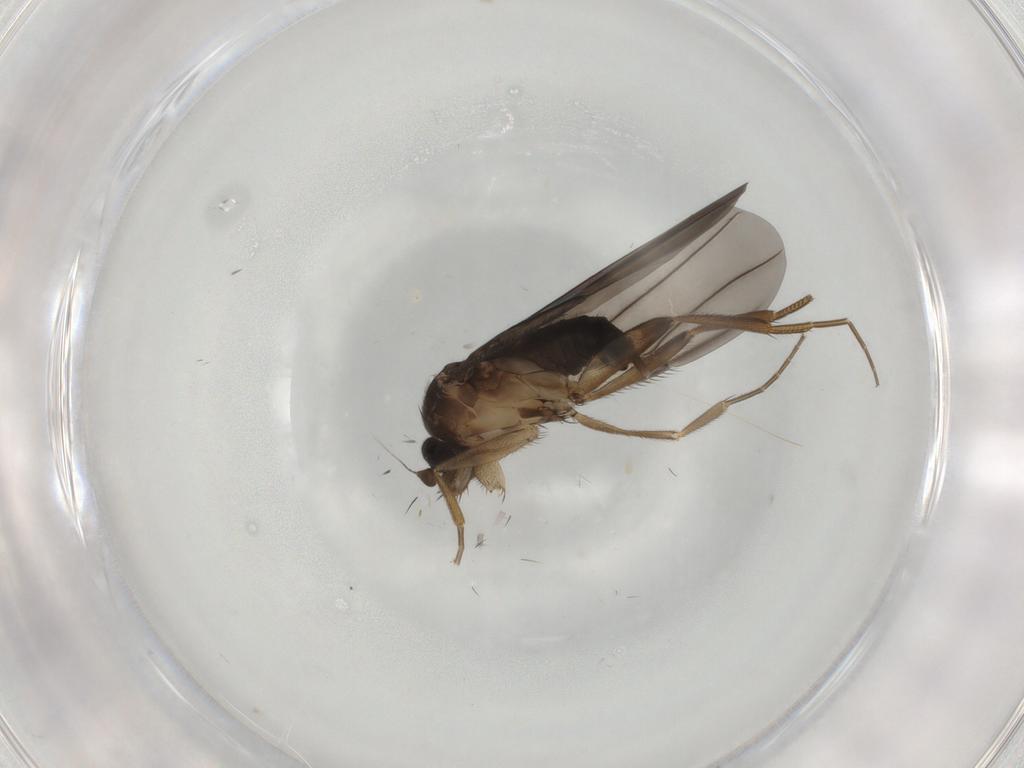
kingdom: Animalia
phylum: Arthropoda
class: Insecta
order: Diptera
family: Phoridae
